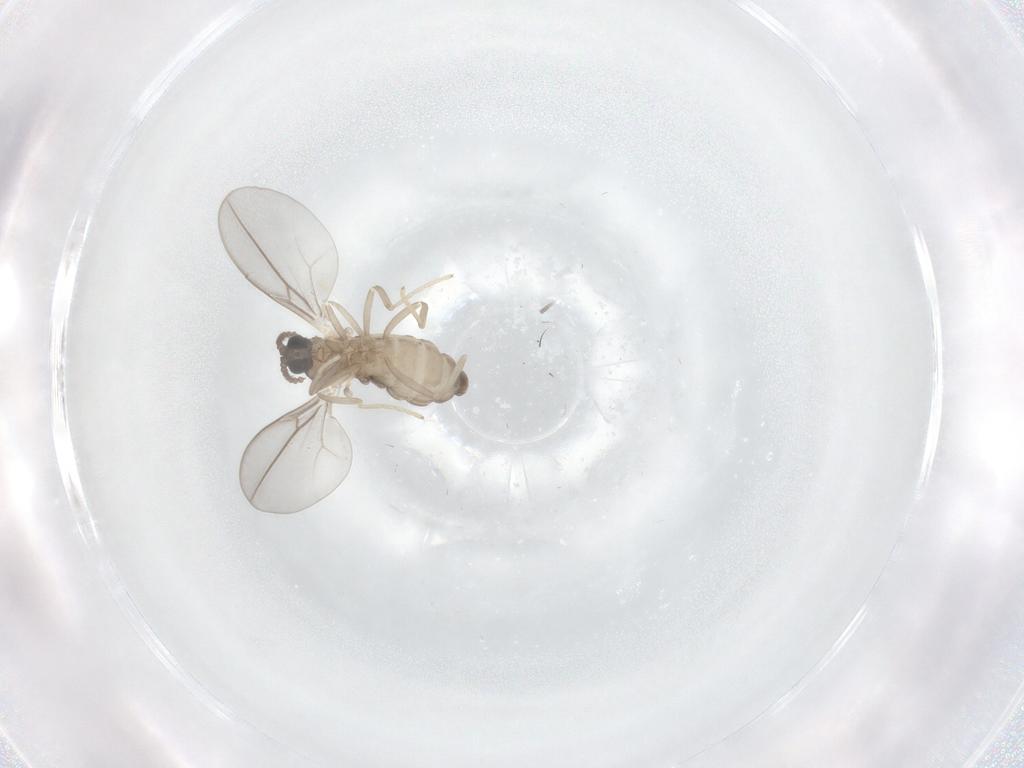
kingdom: Animalia
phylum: Arthropoda
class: Insecta
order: Diptera
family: Cecidomyiidae
